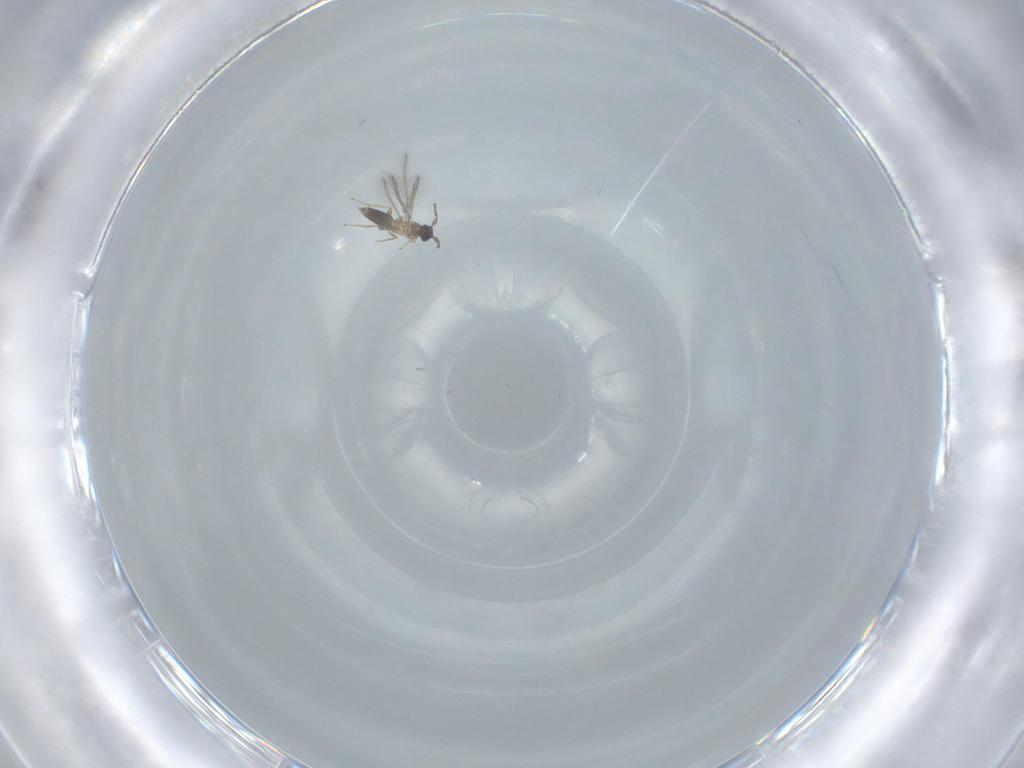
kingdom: Animalia
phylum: Arthropoda
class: Insecta
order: Hymenoptera
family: Mymaridae
